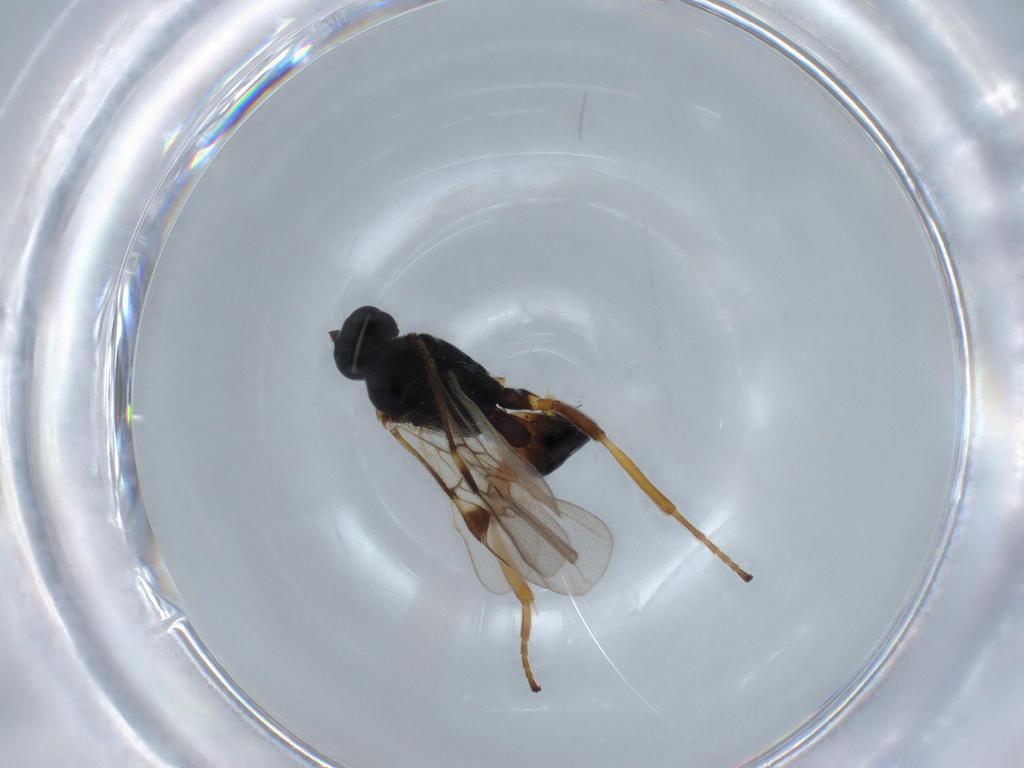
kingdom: Animalia
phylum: Arthropoda
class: Insecta
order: Hymenoptera
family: Braconidae
